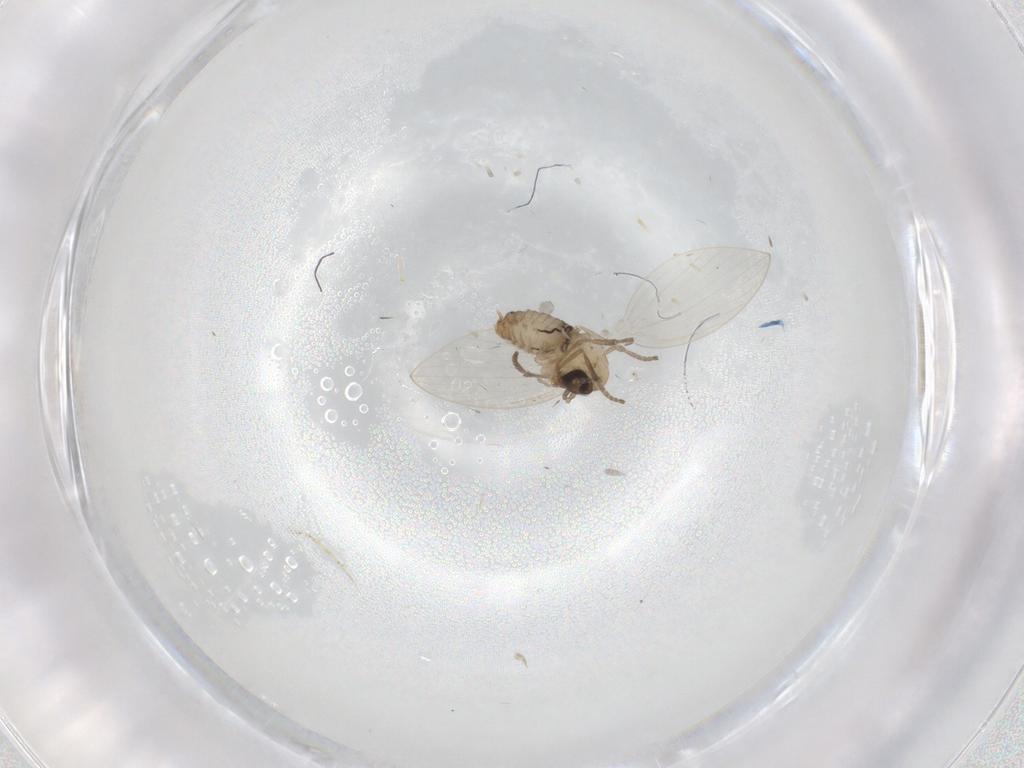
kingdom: Animalia
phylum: Arthropoda
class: Insecta
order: Diptera
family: Psychodidae
